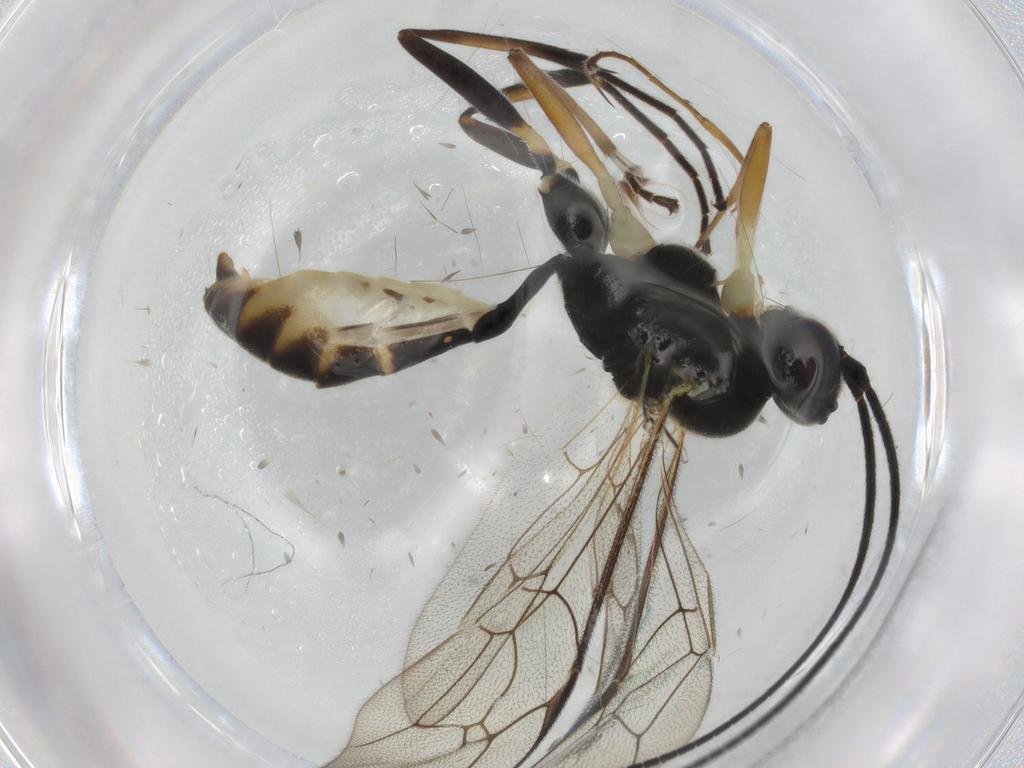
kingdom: Animalia
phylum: Arthropoda
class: Insecta
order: Hymenoptera
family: Ichneumonidae
